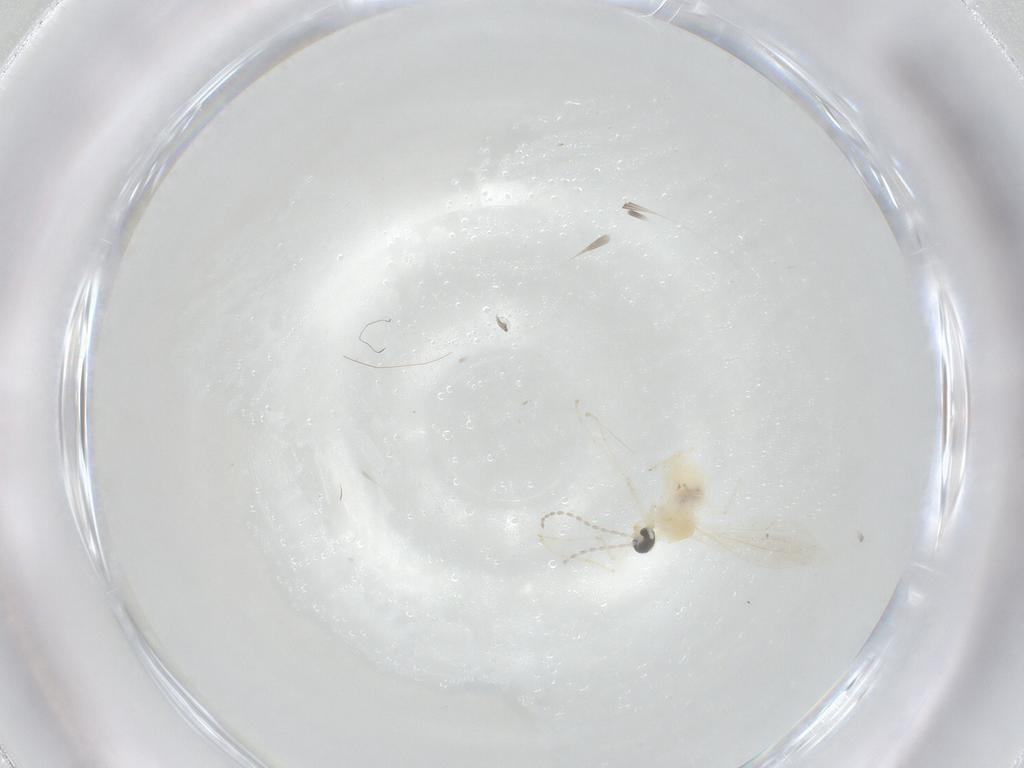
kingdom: Animalia
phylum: Arthropoda
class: Insecta
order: Diptera
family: Cecidomyiidae
